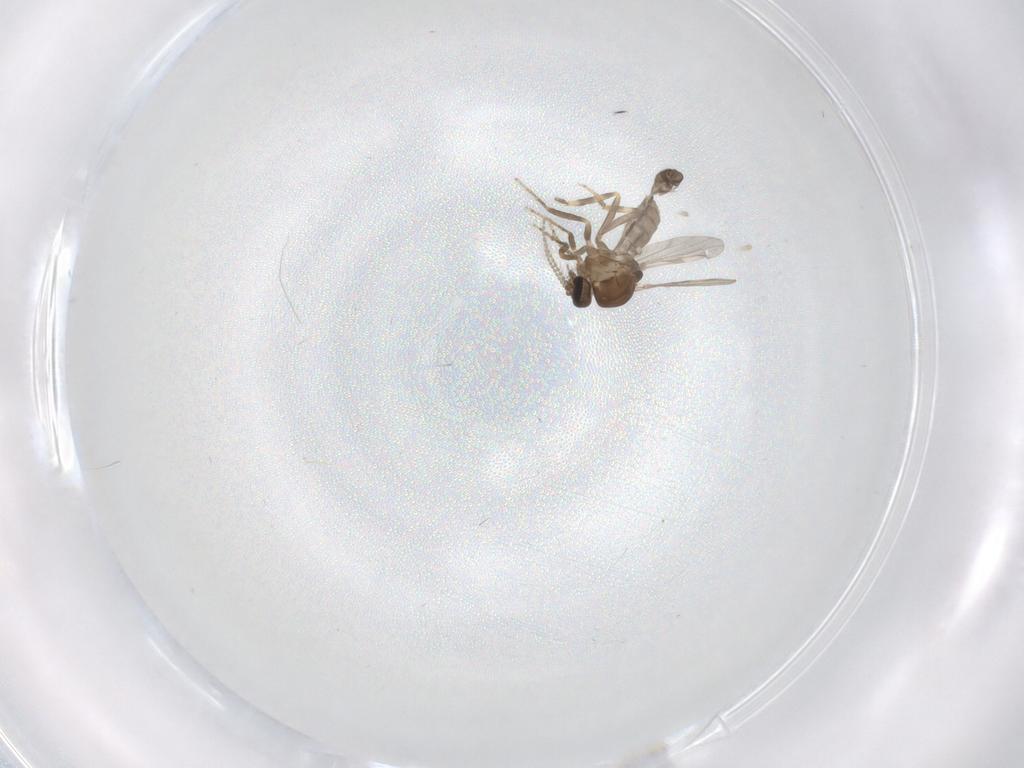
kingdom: Animalia
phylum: Arthropoda
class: Insecta
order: Diptera
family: Ceratopogonidae
